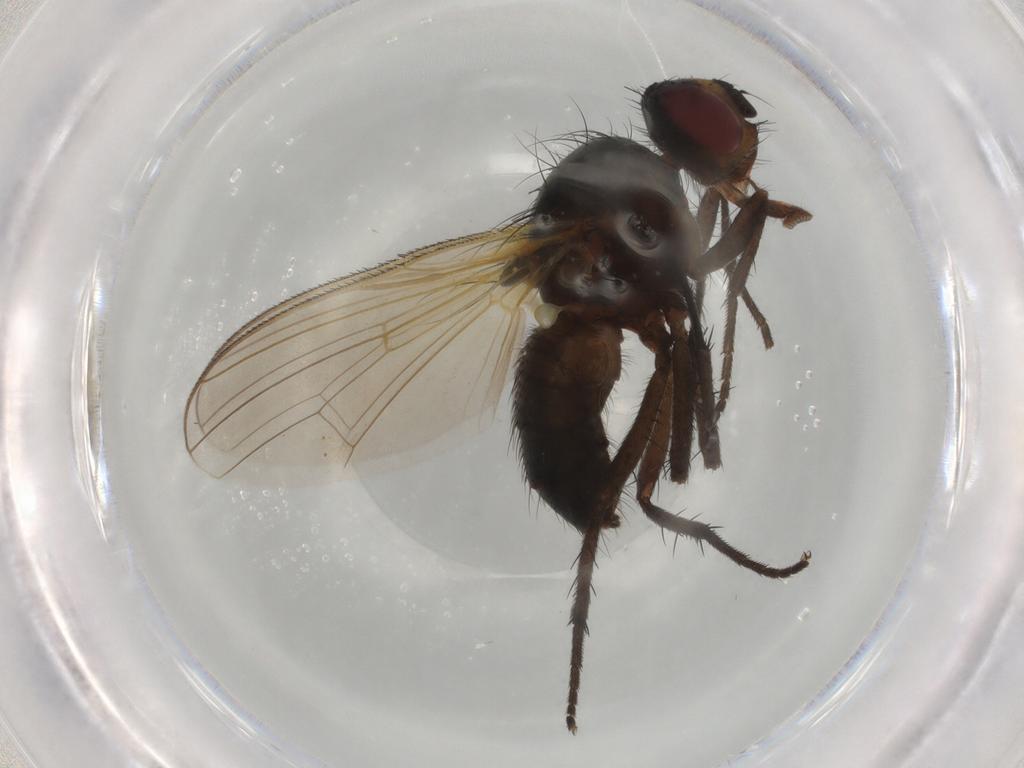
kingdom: Animalia
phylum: Arthropoda
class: Insecta
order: Diptera
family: Anthomyiidae
